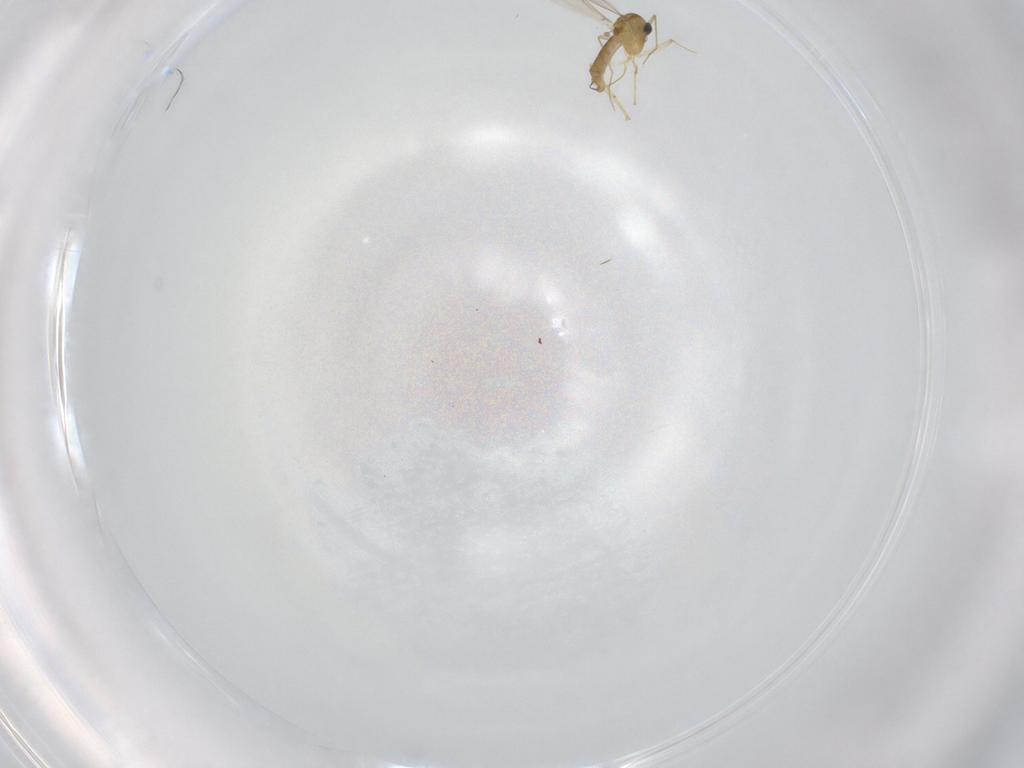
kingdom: Animalia
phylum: Arthropoda
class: Insecta
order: Diptera
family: Chironomidae
